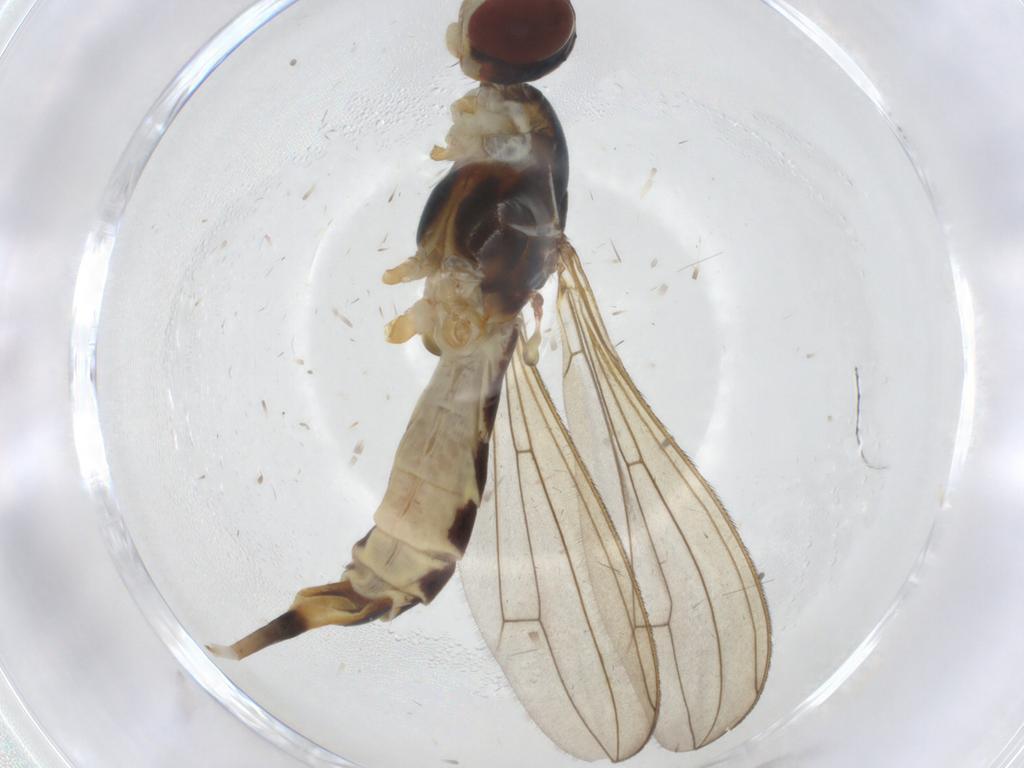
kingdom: Animalia
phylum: Arthropoda
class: Insecta
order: Diptera
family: Micropezidae
